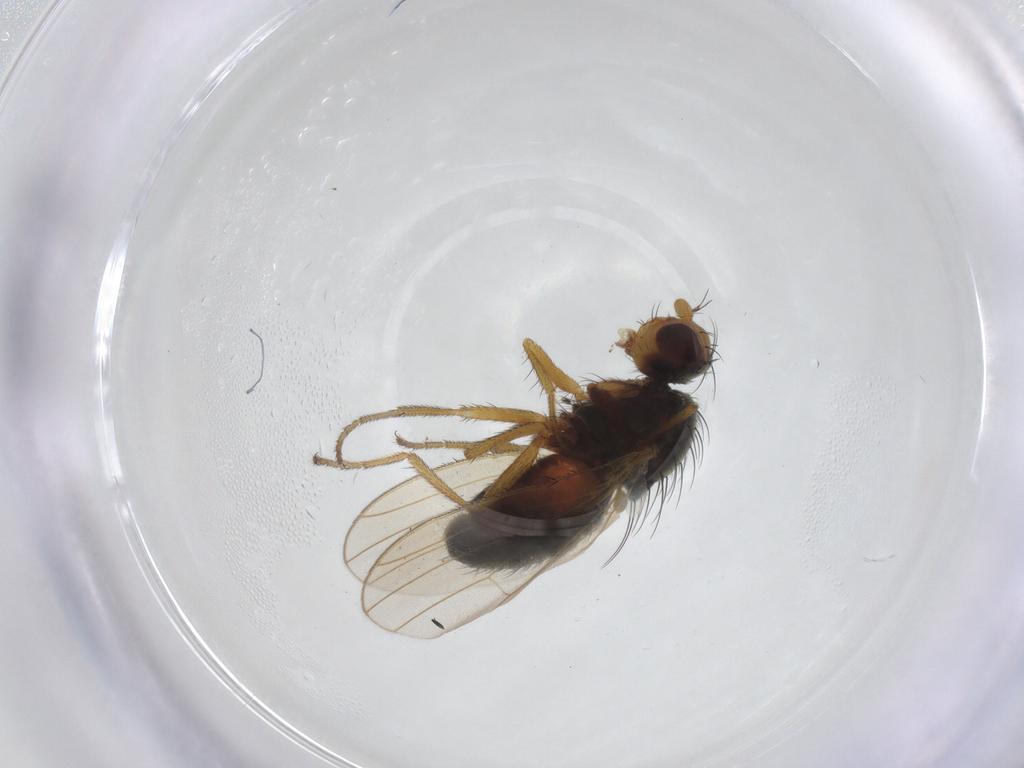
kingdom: Animalia
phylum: Arthropoda
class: Insecta
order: Diptera
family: Heleomyzidae
